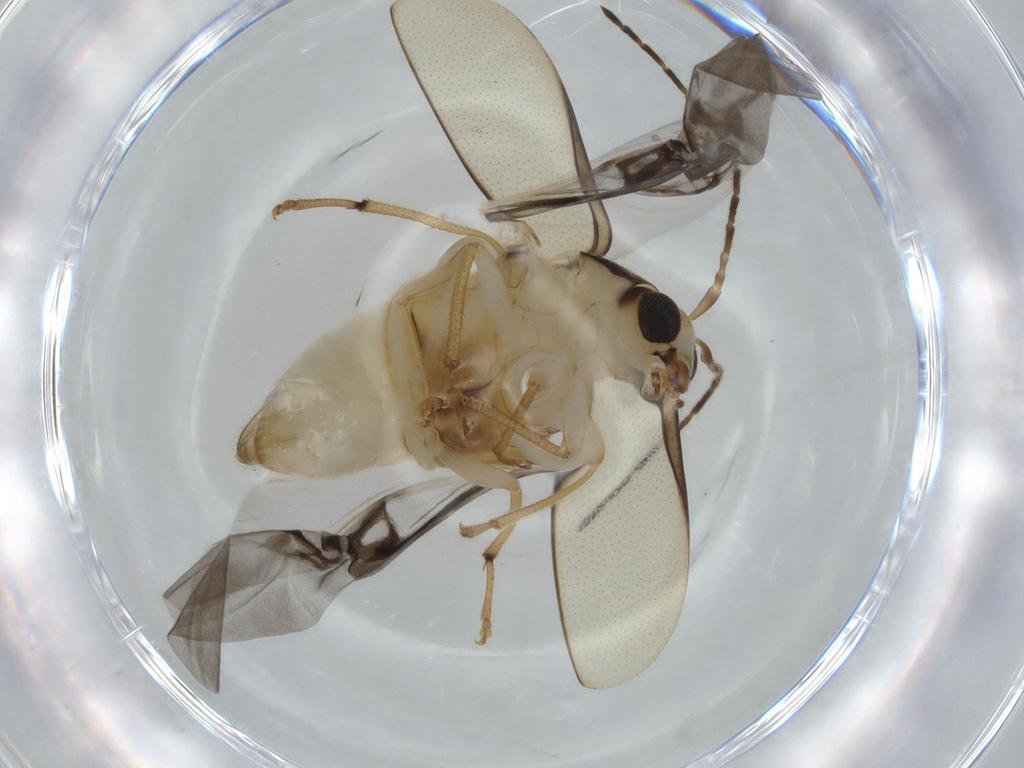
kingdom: Animalia
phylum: Arthropoda
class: Insecta
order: Coleoptera
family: Chrysomelidae
